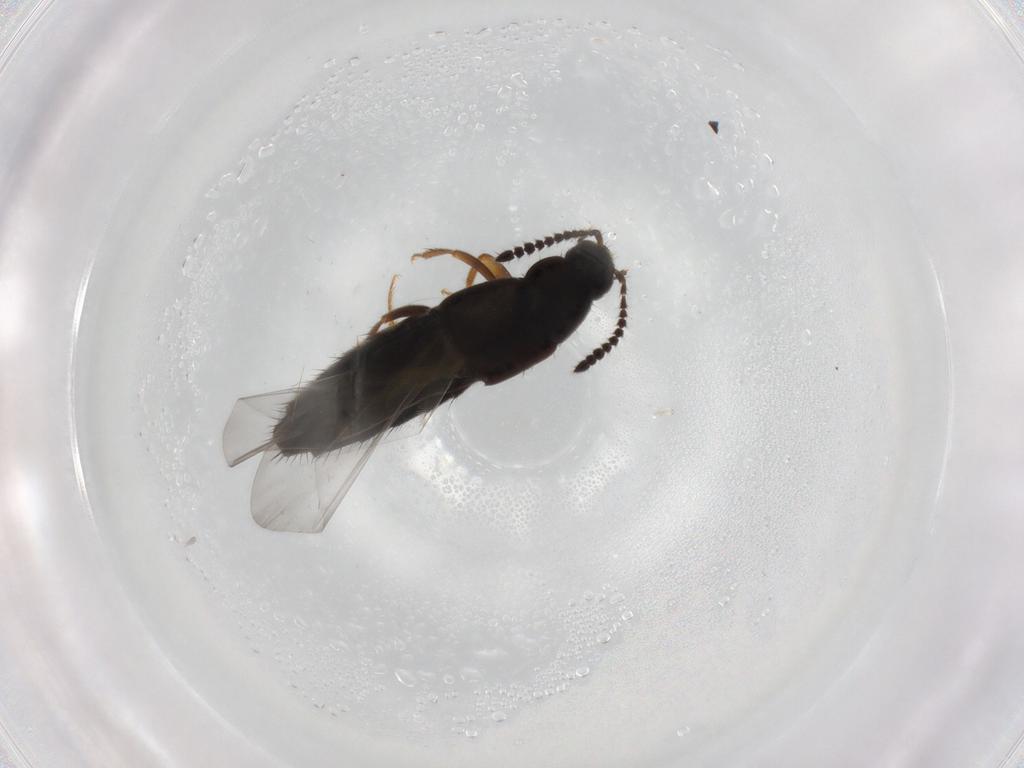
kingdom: Animalia
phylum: Arthropoda
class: Insecta
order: Coleoptera
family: Staphylinidae
